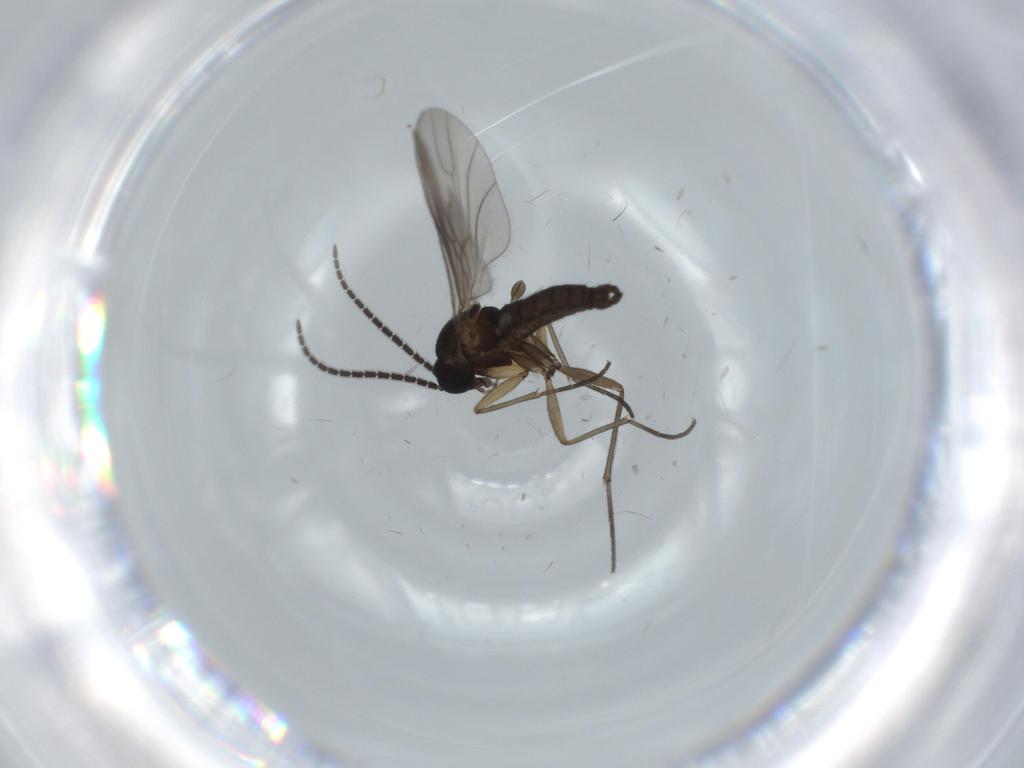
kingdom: Animalia
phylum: Arthropoda
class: Insecta
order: Diptera
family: Sciaridae
